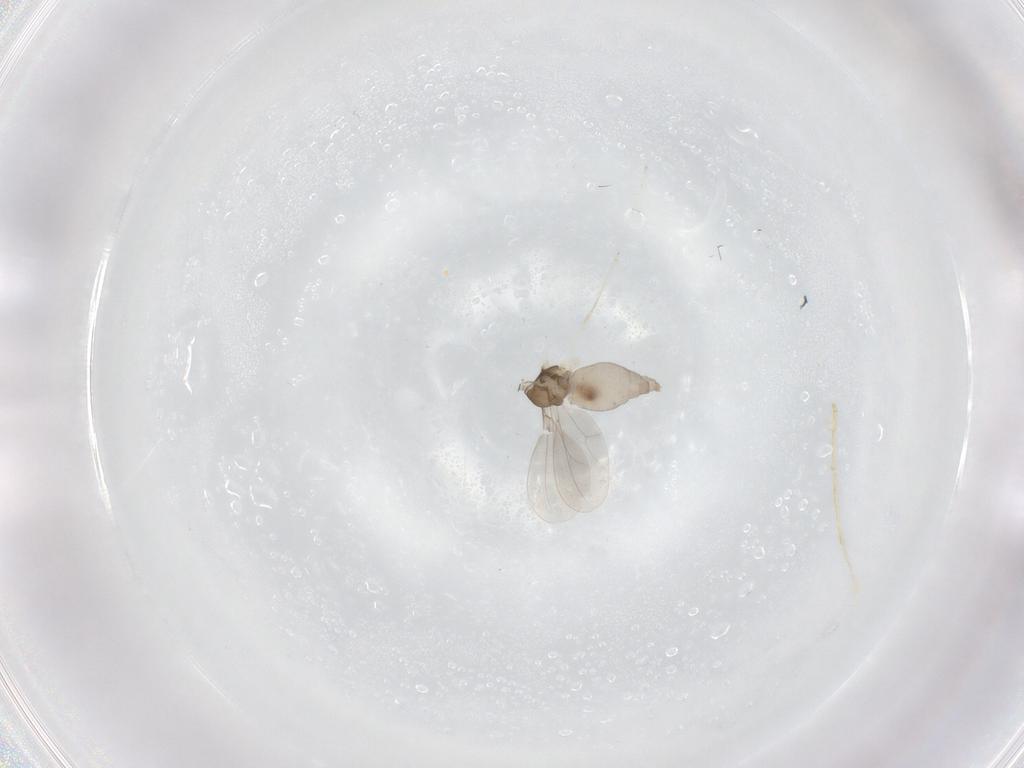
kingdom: Animalia
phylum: Arthropoda
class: Insecta
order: Diptera
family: Cecidomyiidae
